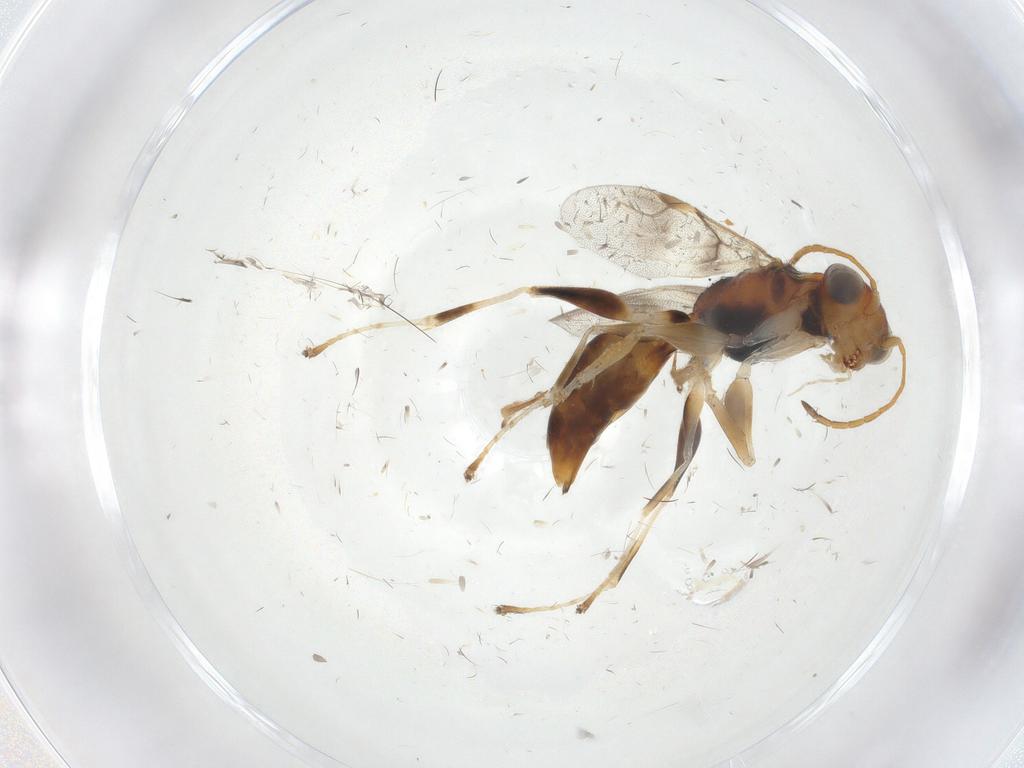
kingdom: Animalia
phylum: Arthropoda
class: Insecta
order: Hymenoptera
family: Dryinidae
